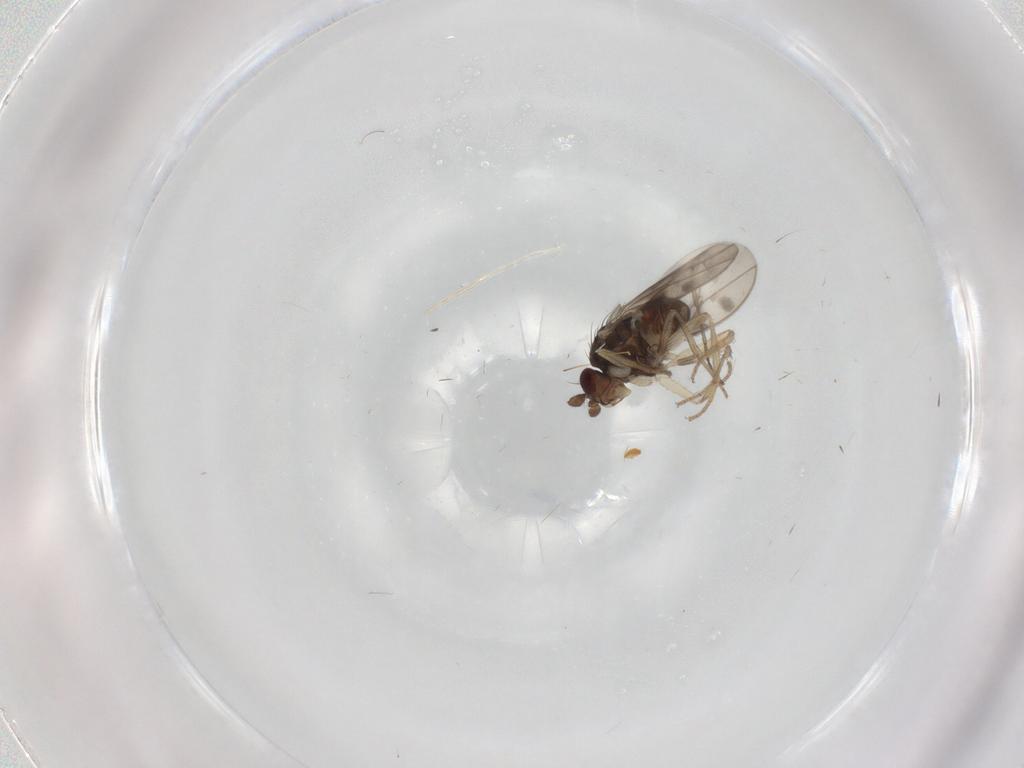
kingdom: Animalia
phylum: Arthropoda
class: Insecta
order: Diptera
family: Sphaeroceridae
